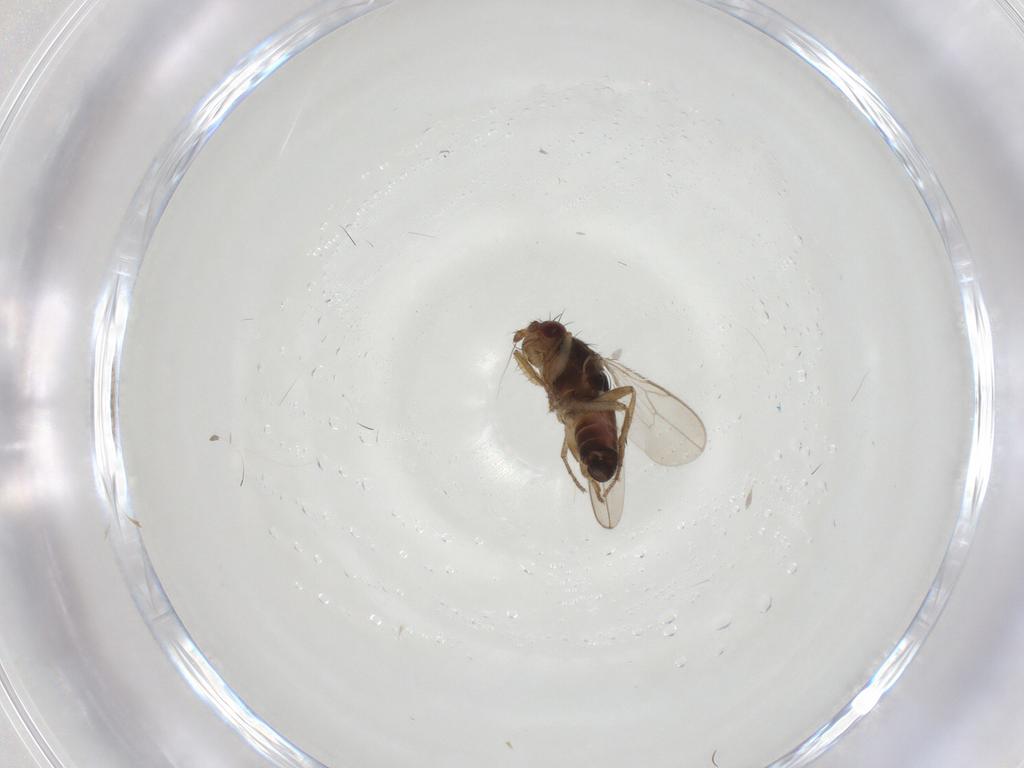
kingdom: Animalia
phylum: Arthropoda
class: Insecta
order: Diptera
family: Sphaeroceridae
